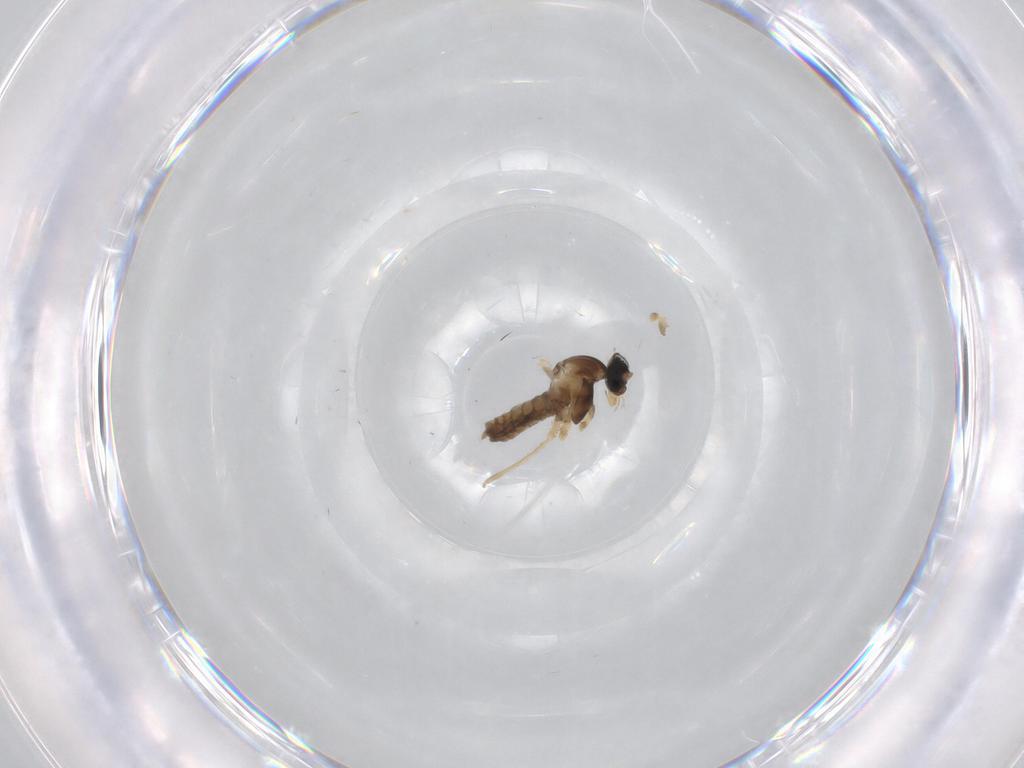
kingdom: Animalia
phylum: Arthropoda
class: Insecta
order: Diptera
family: Cecidomyiidae
